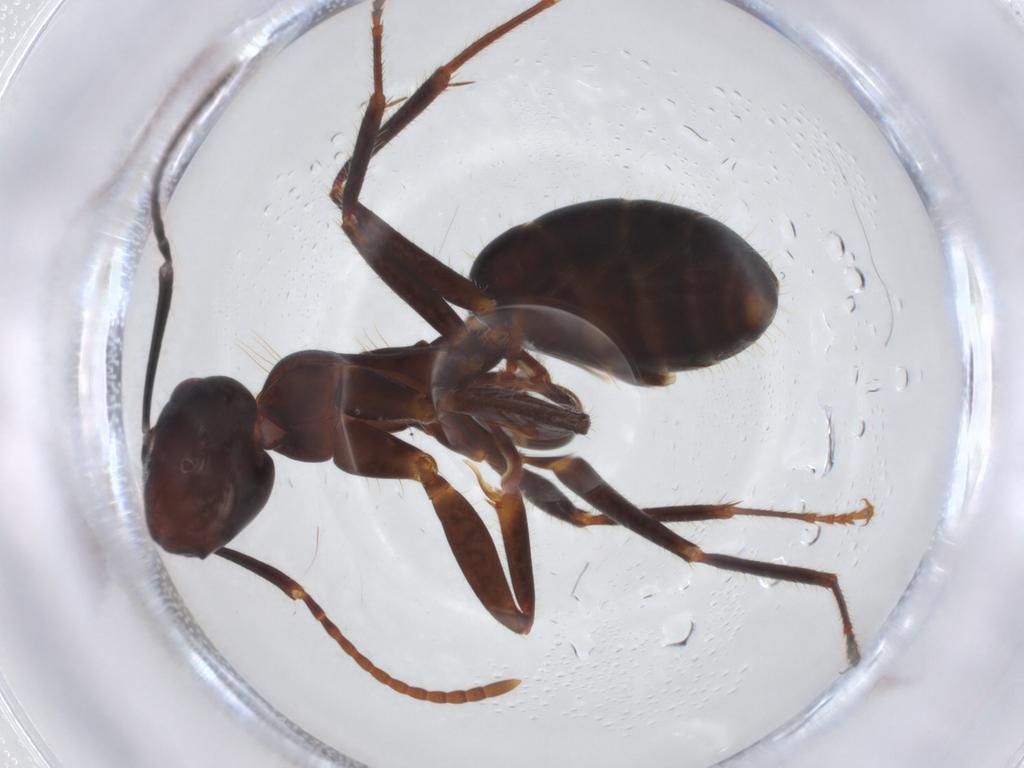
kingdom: Animalia
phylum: Arthropoda
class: Insecta
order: Hymenoptera
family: Formicidae
